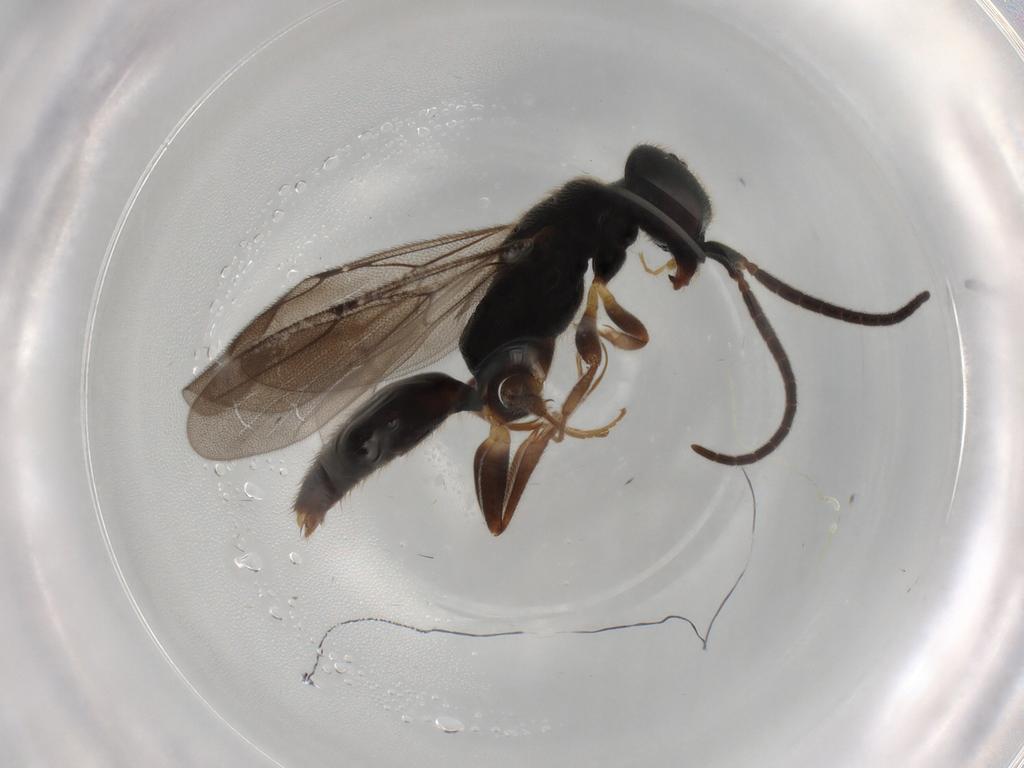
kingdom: Animalia
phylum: Arthropoda
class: Insecta
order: Hymenoptera
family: Bethylidae
